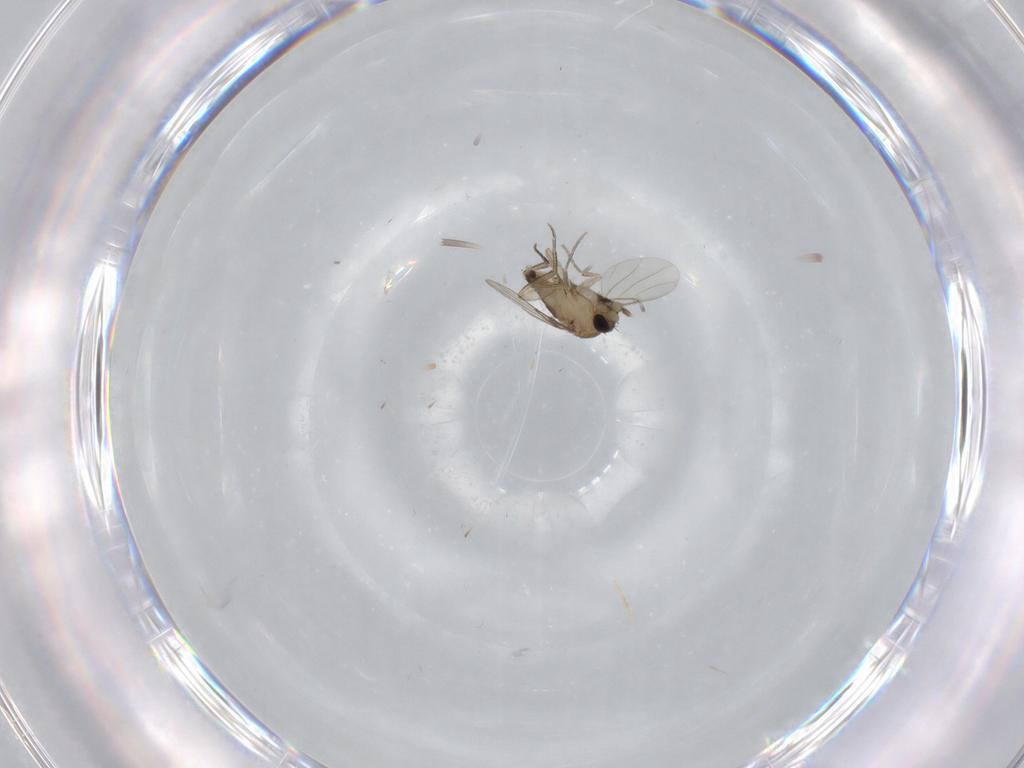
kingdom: Animalia
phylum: Arthropoda
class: Insecta
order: Diptera
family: Phoridae
